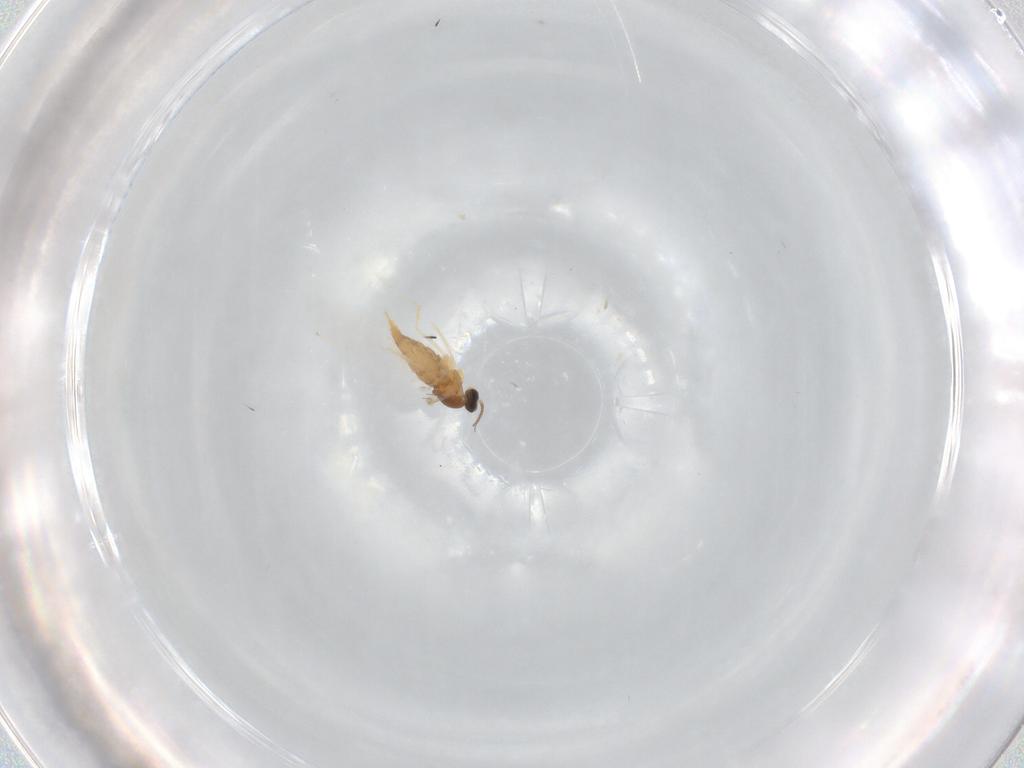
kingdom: Animalia
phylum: Arthropoda
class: Insecta
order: Diptera
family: Cecidomyiidae
